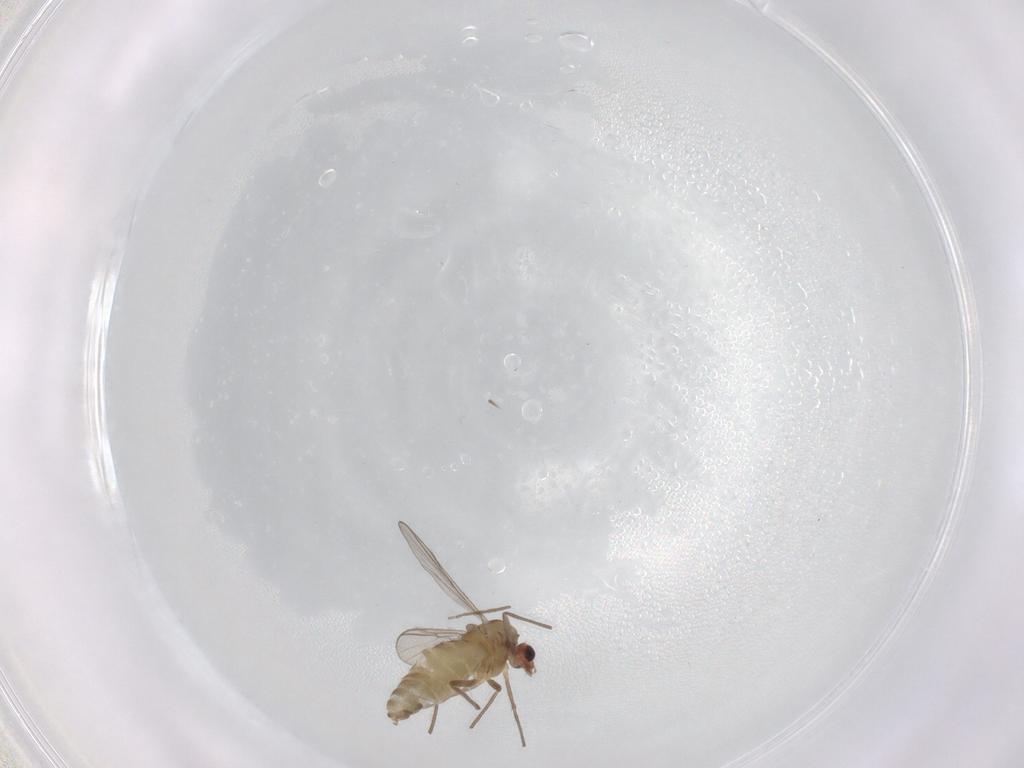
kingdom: Animalia
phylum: Arthropoda
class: Insecta
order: Diptera
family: Chironomidae
